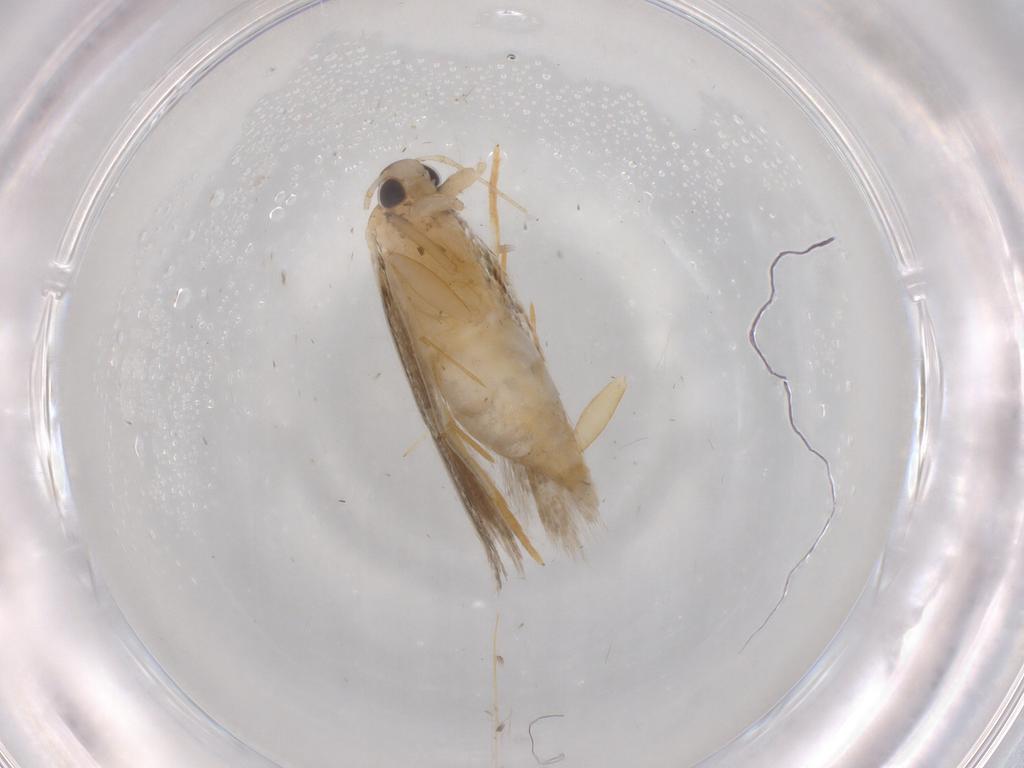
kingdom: Animalia
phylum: Arthropoda
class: Insecta
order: Lepidoptera
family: Autostichidae
